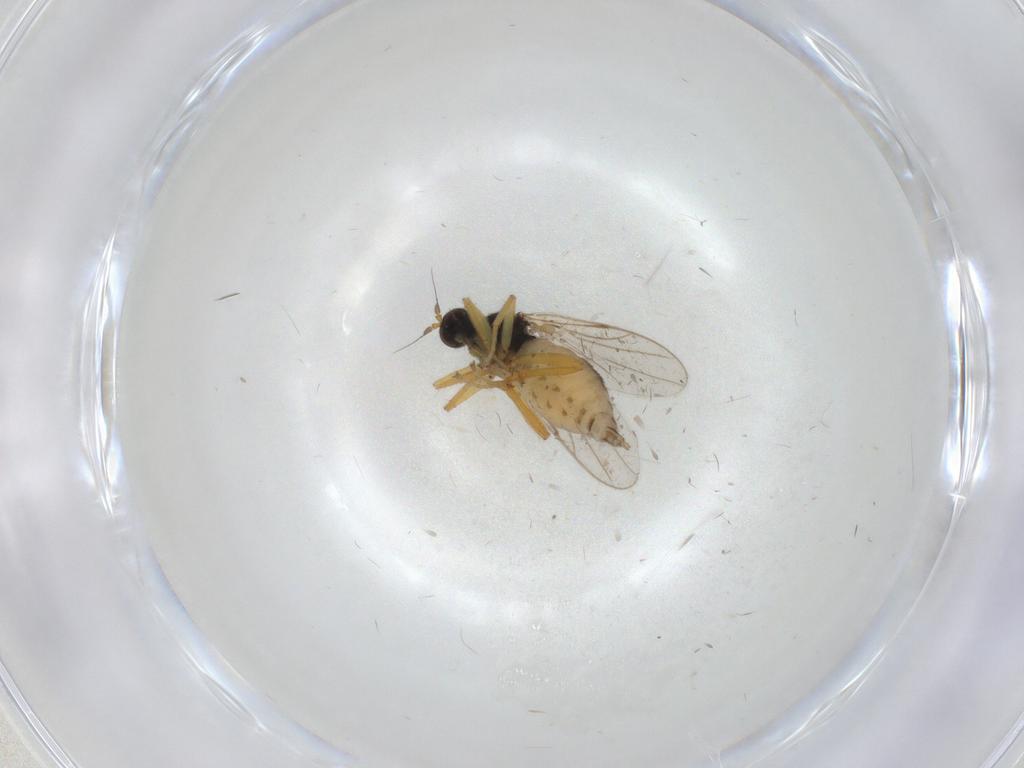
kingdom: Animalia
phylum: Arthropoda
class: Insecta
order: Diptera
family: Hybotidae
